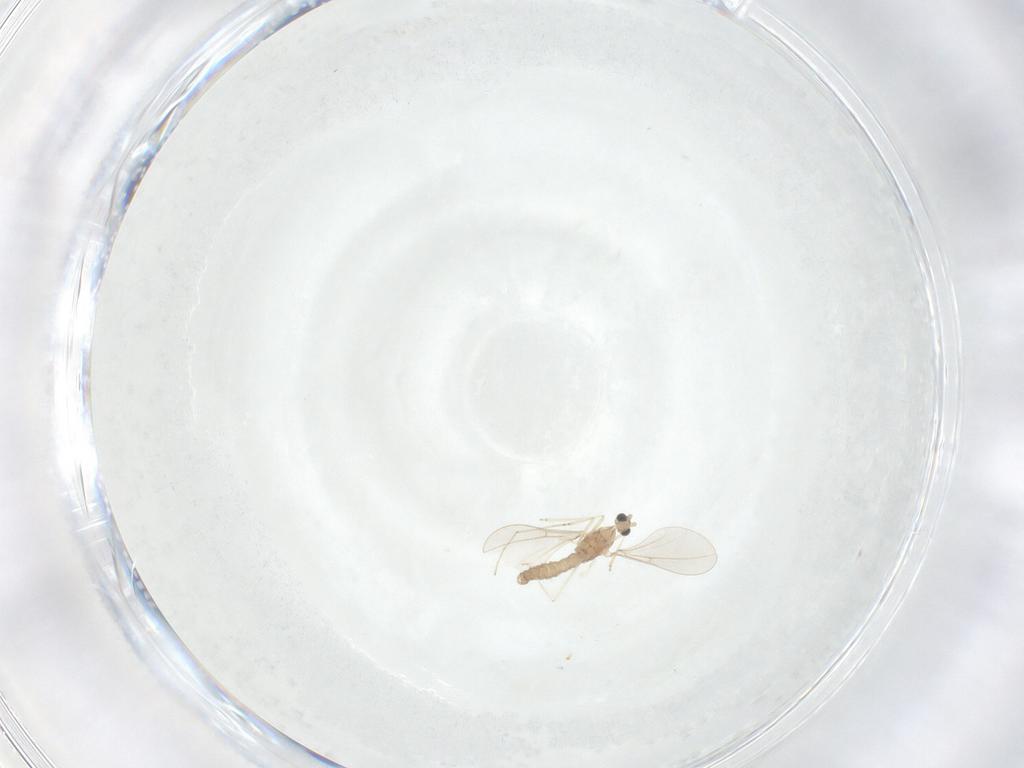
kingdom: Animalia
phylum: Arthropoda
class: Insecta
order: Diptera
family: Cecidomyiidae
